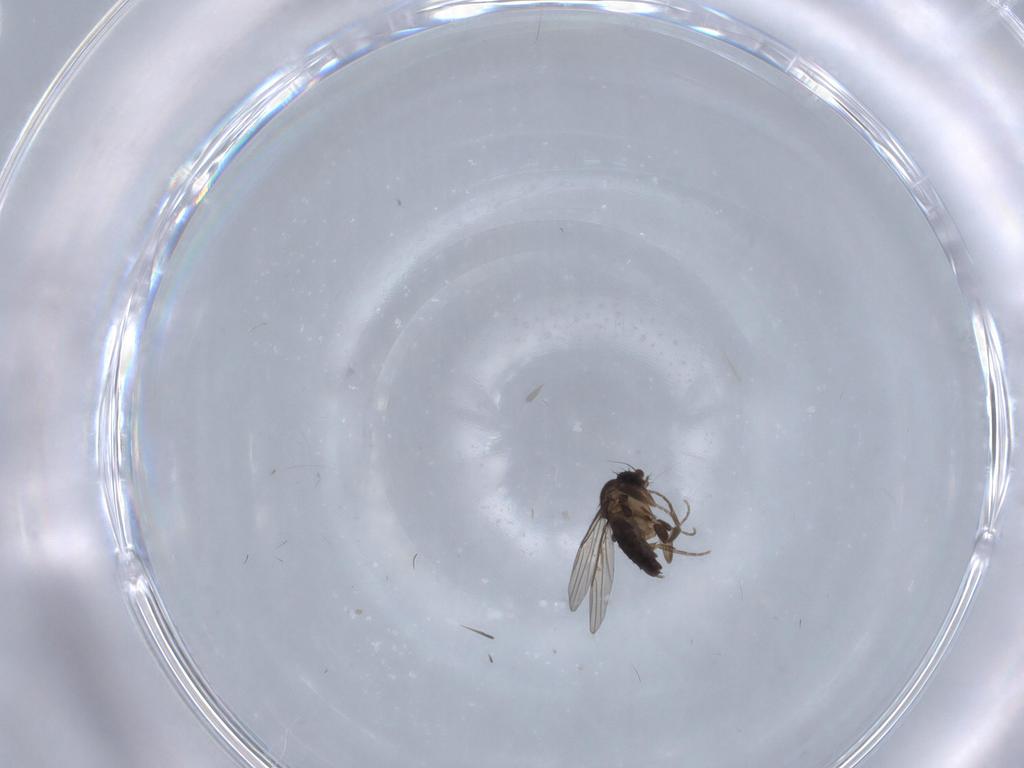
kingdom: Animalia
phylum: Arthropoda
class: Insecta
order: Diptera
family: Phoridae
